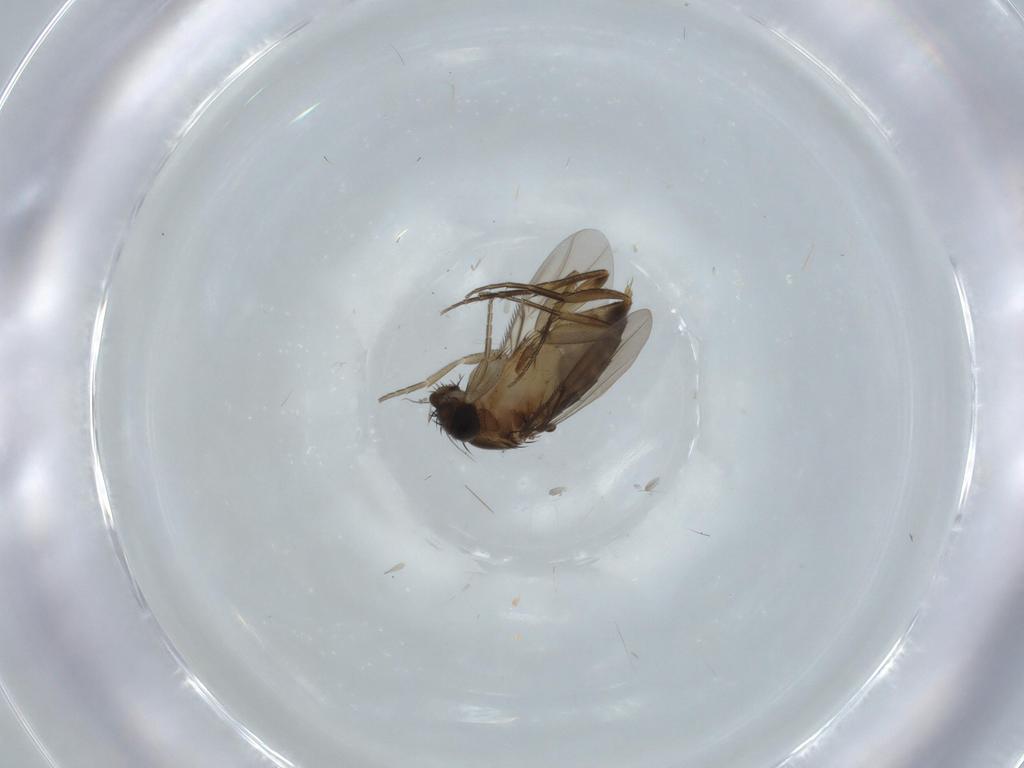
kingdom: Animalia
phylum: Arthropoda
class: Insecta
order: Diptera
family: Phoridae
